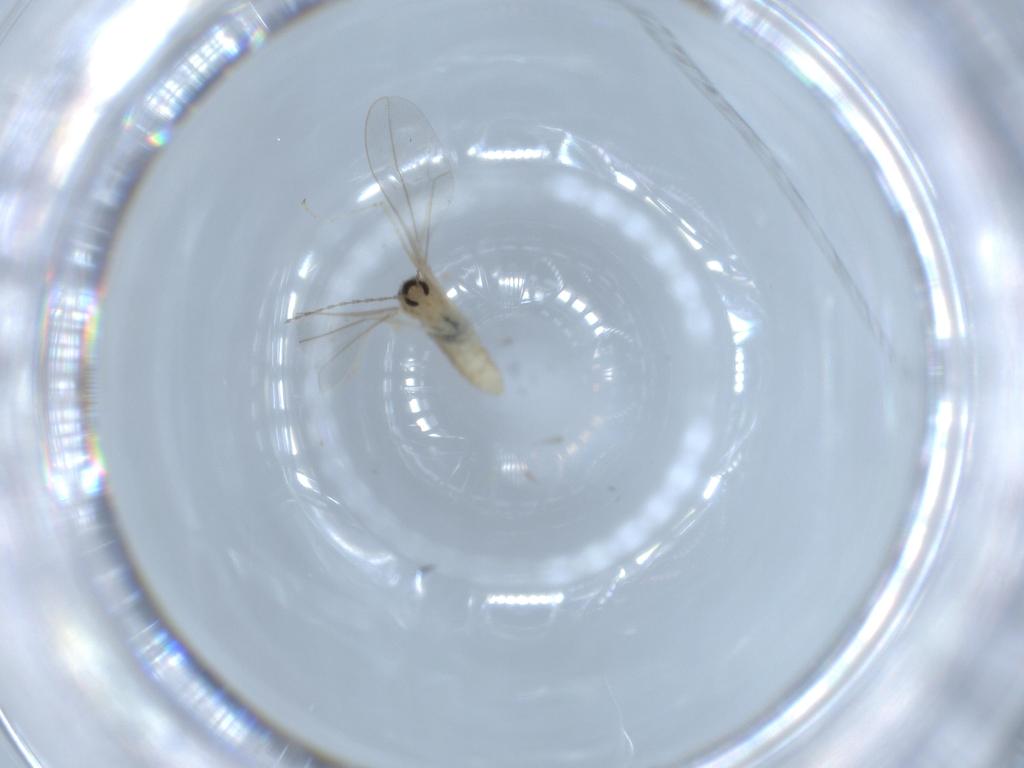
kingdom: Animalia
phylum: Arthropoda
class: Insecta
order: Diptera
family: Cecidomyiidae
